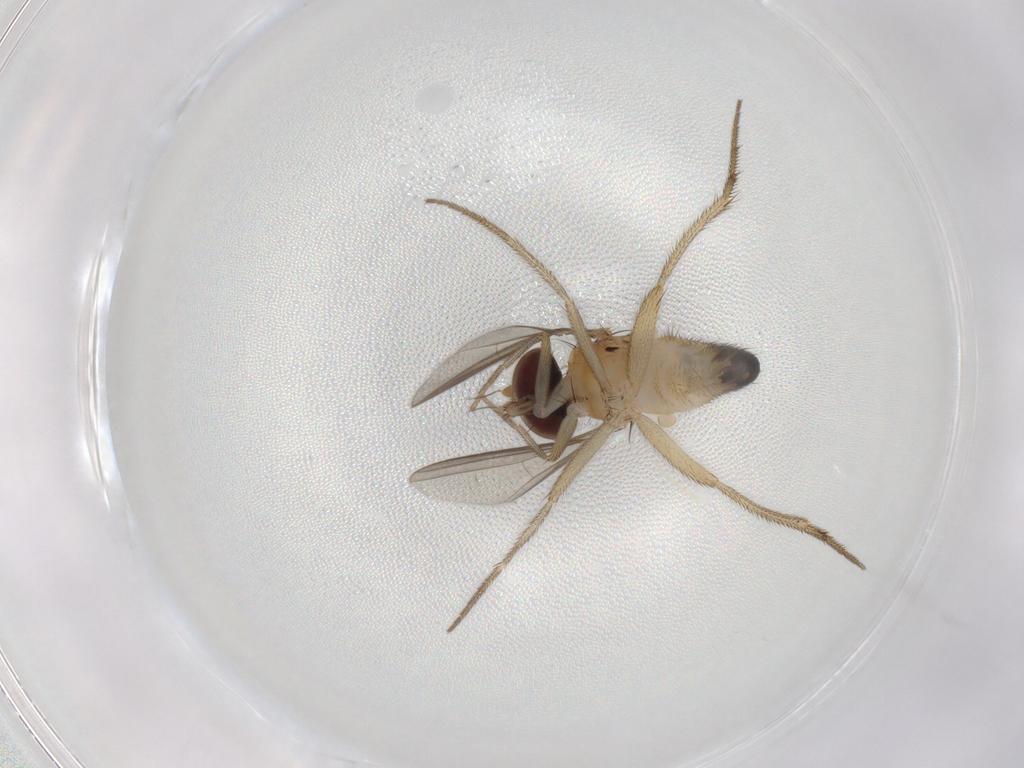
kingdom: Animalia
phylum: Arthropoda
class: Insecta
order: Diptera
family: Dolichopodidae
